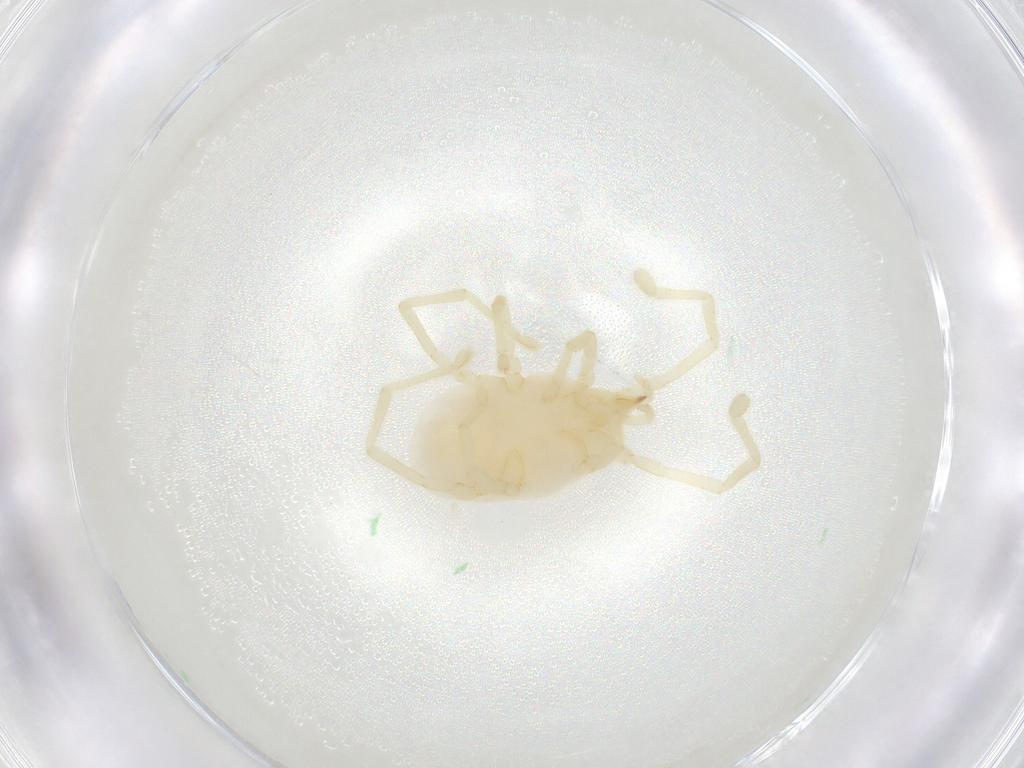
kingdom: Animalia
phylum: Arthropoda
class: Arachnida
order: Trombidiformes
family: Erythraeidae
